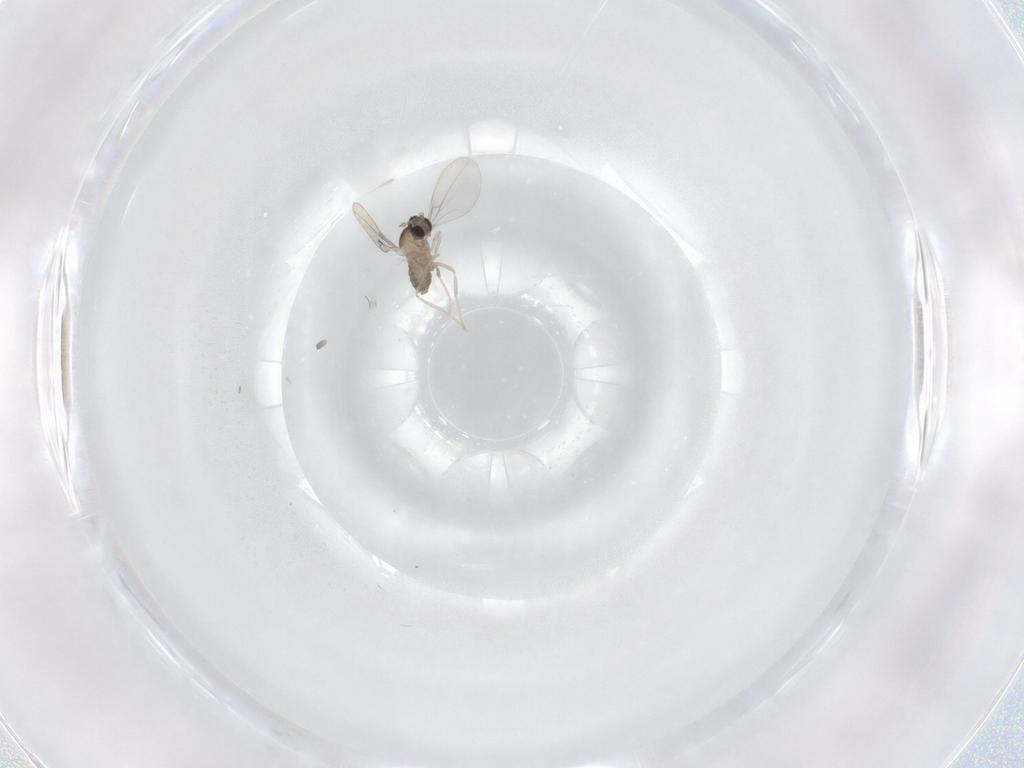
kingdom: Animalia
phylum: Arthropoda
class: Insecta
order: Diptera
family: Cecidomyiidae
